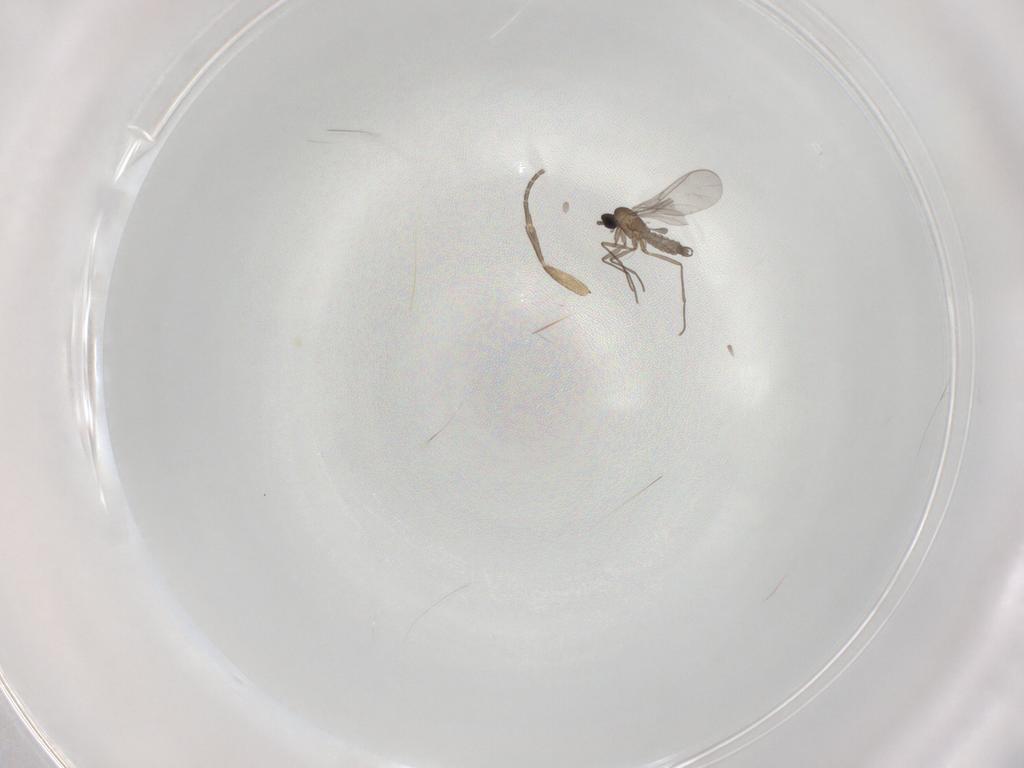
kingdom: Animalia
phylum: Arthropoda
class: Insecta
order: Diptera
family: Sciaridae
